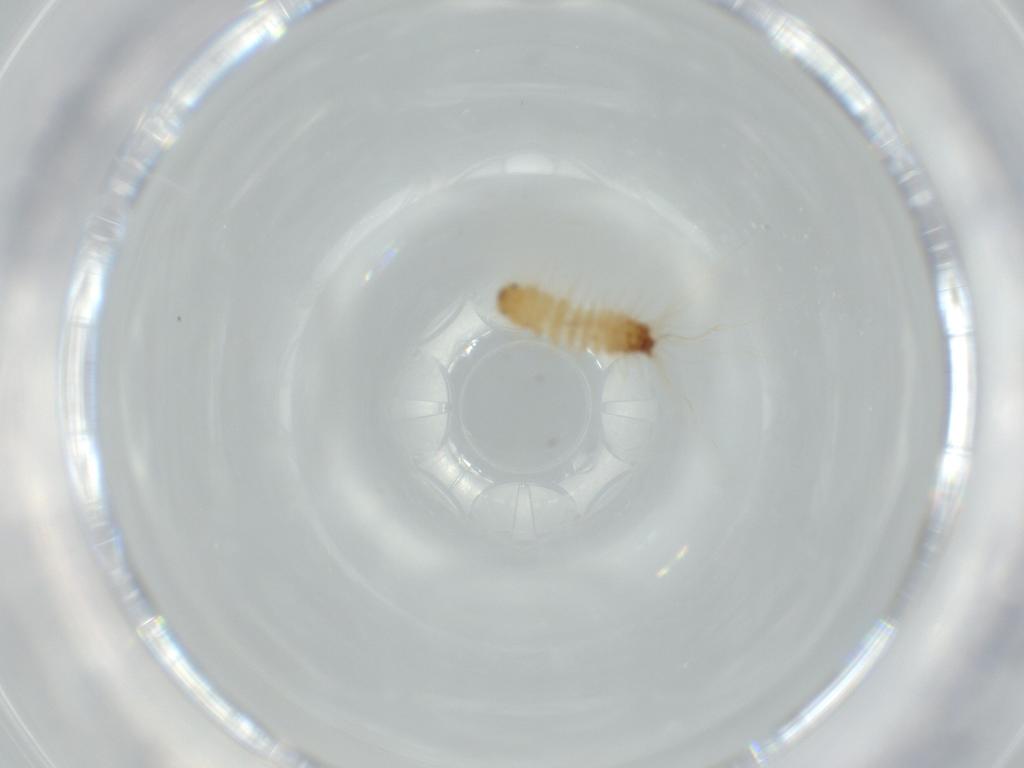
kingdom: Animalia
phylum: Arthropoda
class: Insecta
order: Coleoptera
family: Dermestidae
